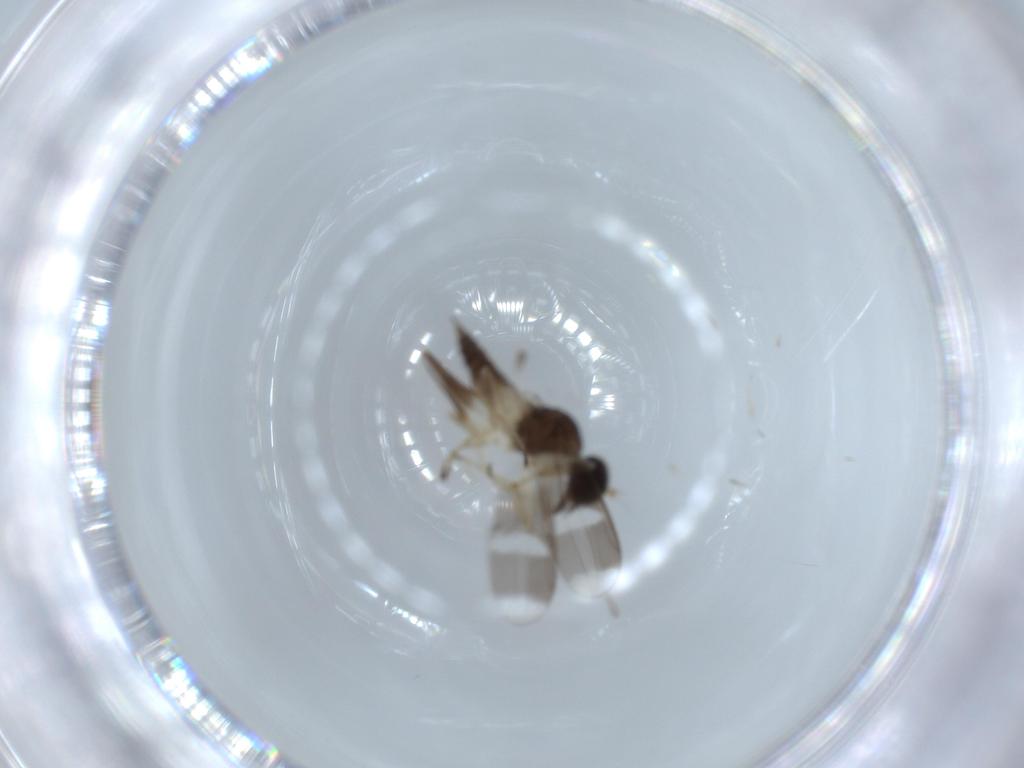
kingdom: Animalia
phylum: Arthropoda
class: Insecta
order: Diptera
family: Hybotidae
